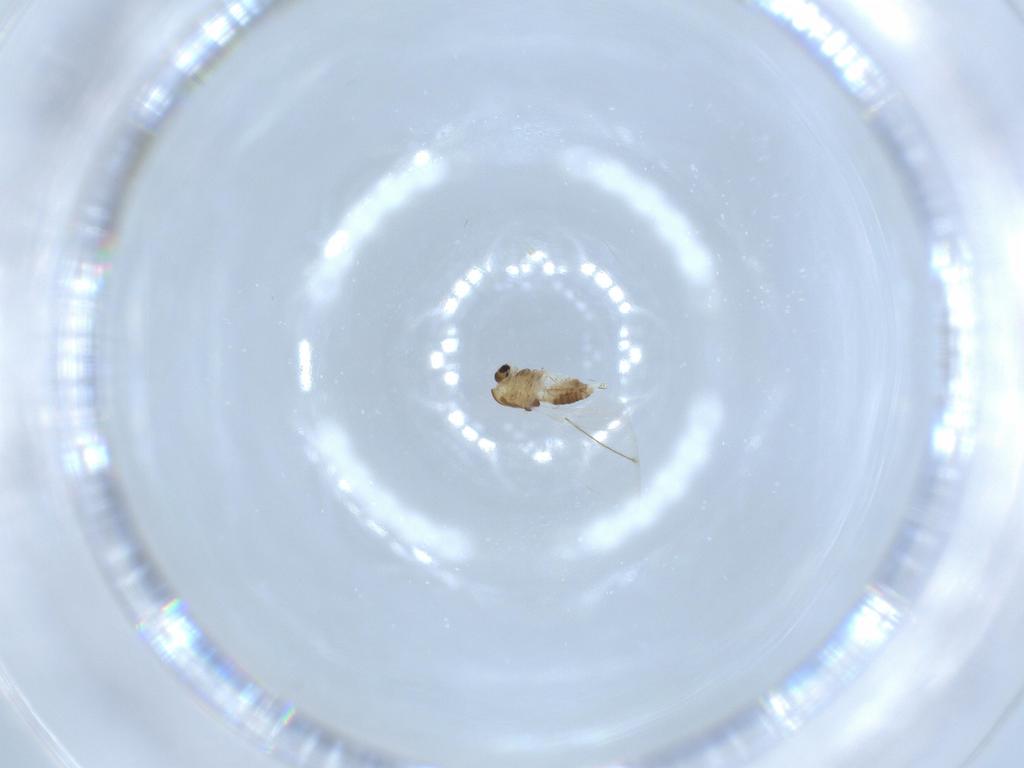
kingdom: Animalia
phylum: Arthropoda
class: Insecta
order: Diptera
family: Chironomidae
